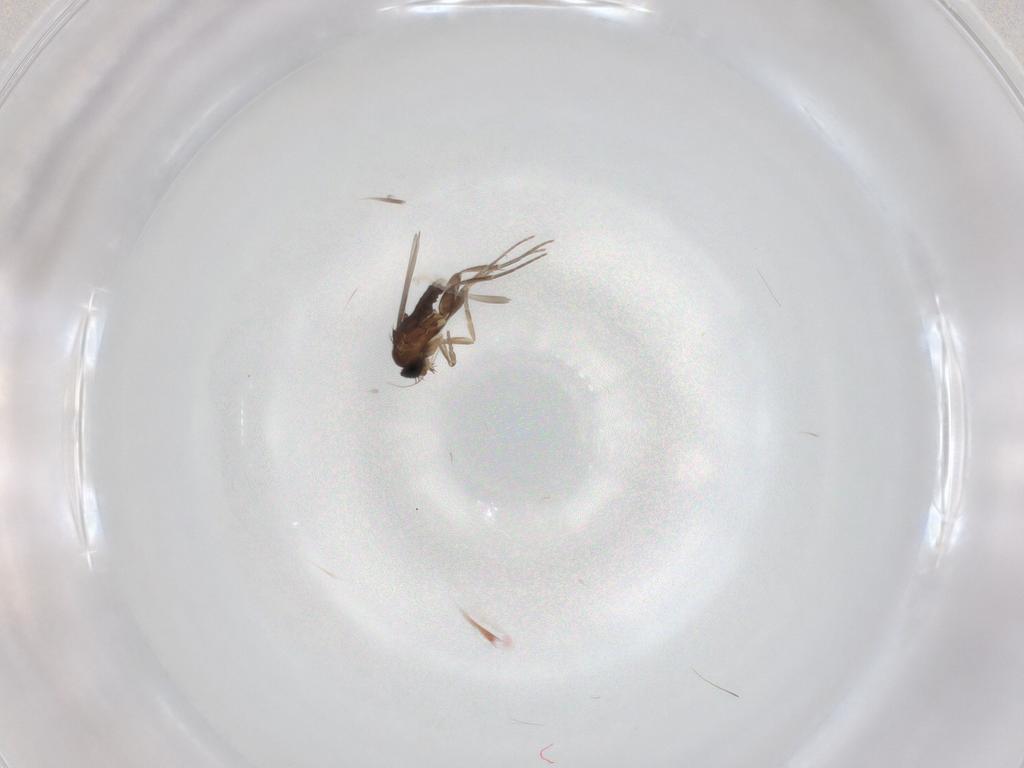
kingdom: Animalia
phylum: Arthropoda
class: Insecta
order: Diptera
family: Phoridae
